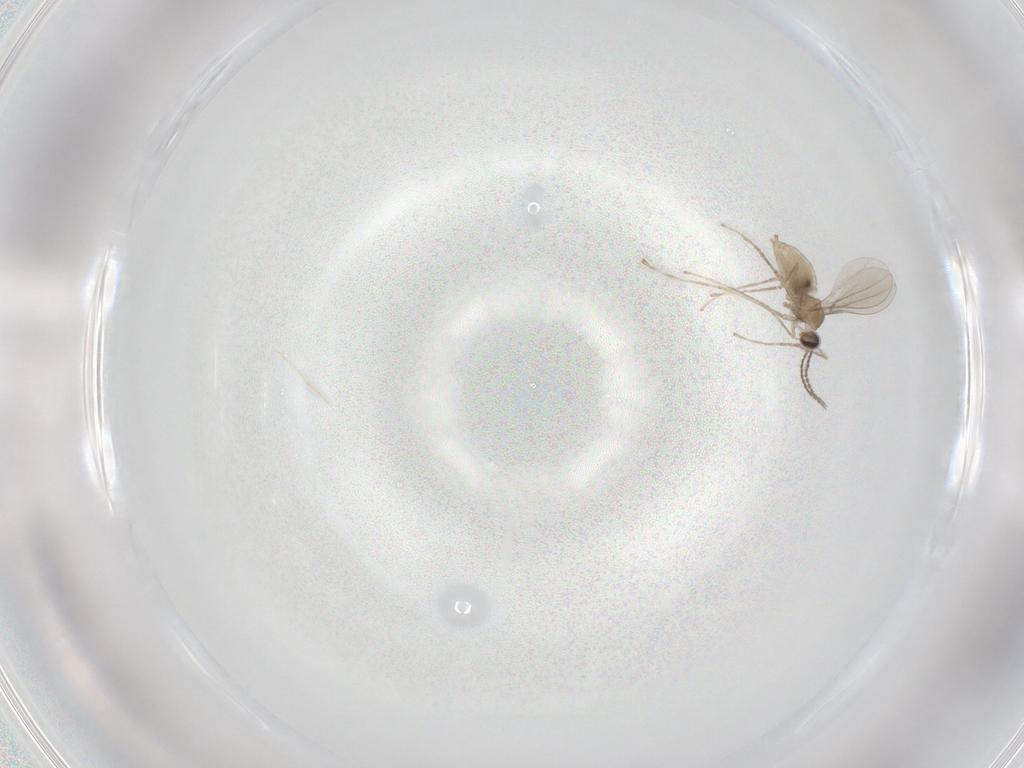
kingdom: Animalia
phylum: Arthropoda
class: Insecta
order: Diptera
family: Cecidomyiidae
